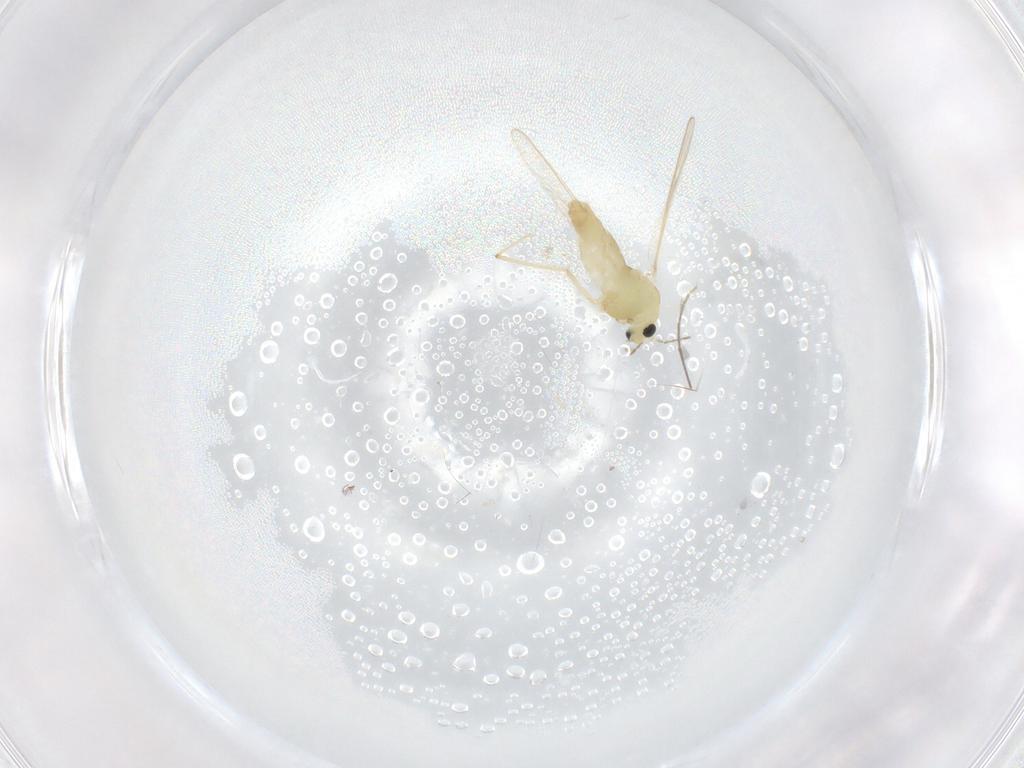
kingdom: Animalia
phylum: Arthropoda
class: Insecta
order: Diptera
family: Chironomidae
